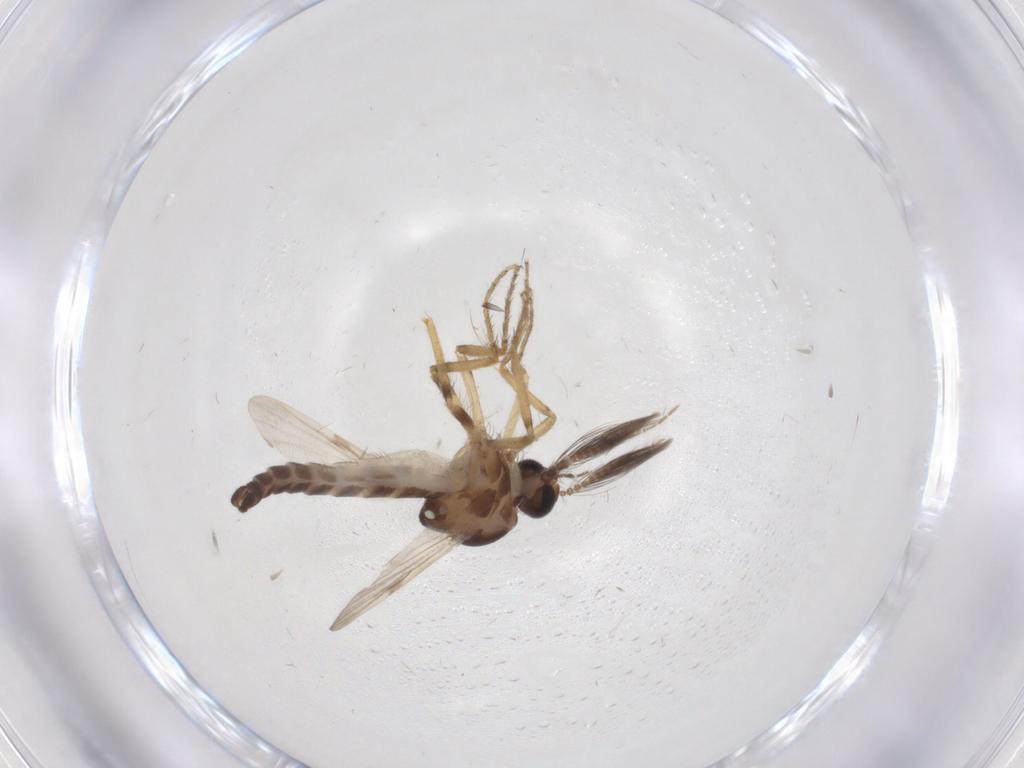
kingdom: Animalia
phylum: Arthropoda
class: Insecta
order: Diptera
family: Ceratopogonidae
